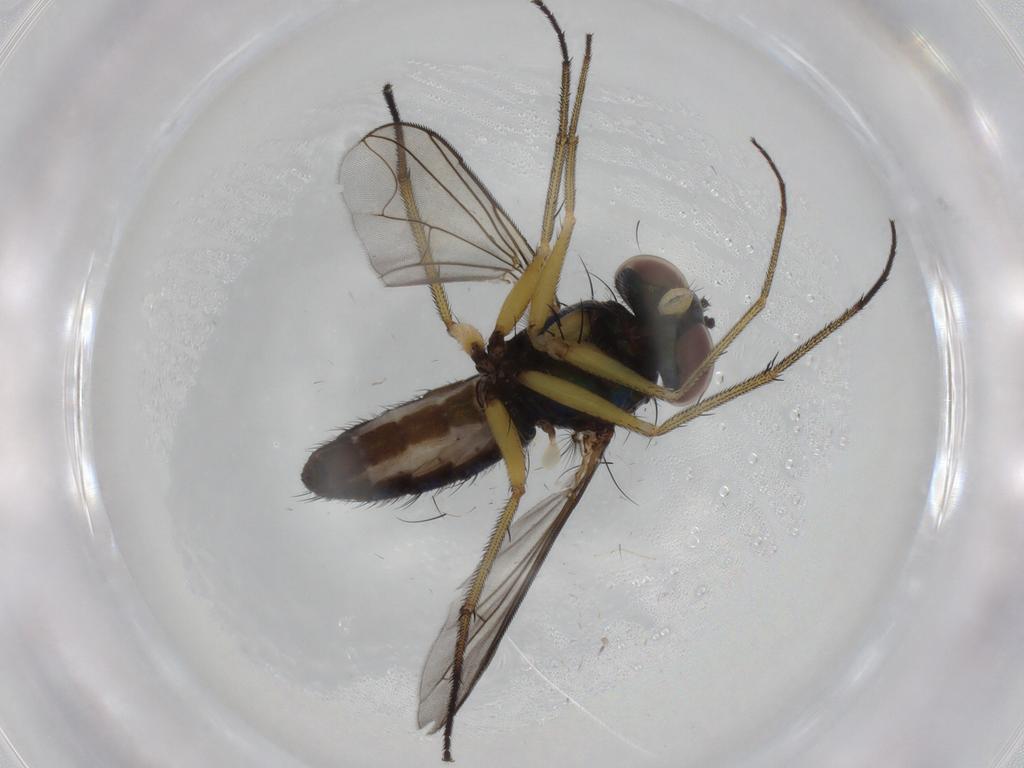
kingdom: Animalia
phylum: Arthropoda
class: Insecta
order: Diptera
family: Dolichopodidae
